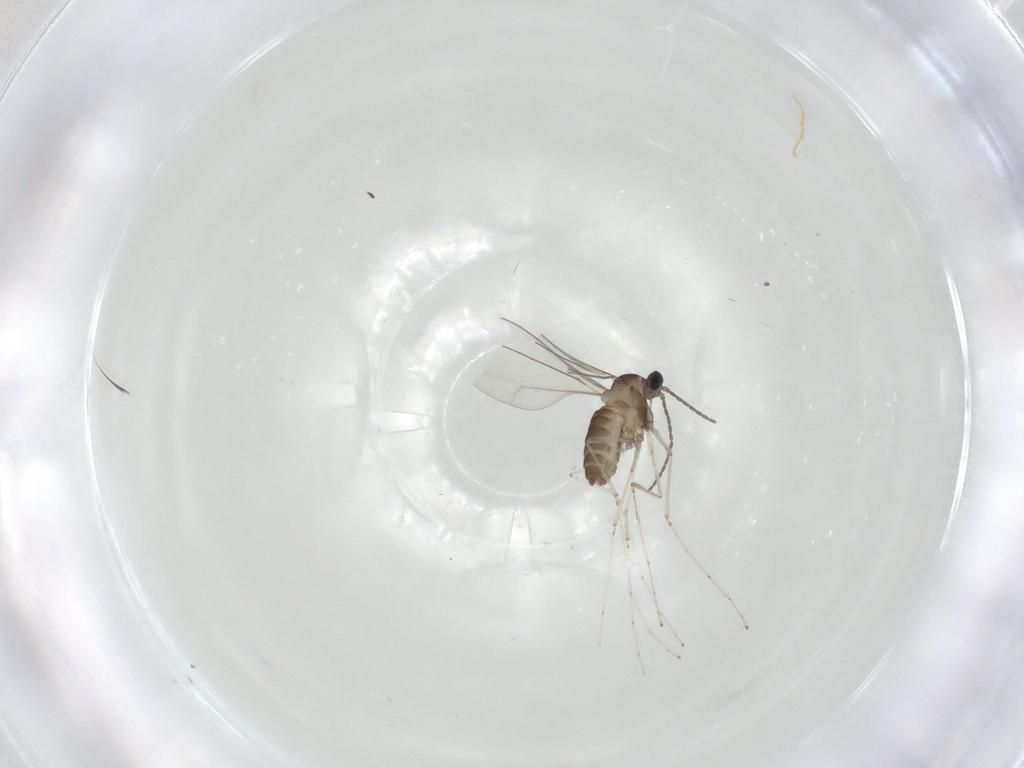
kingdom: Animalia
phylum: Arthropoda
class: Insecta
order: Diptera
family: Cecidomyiidae
